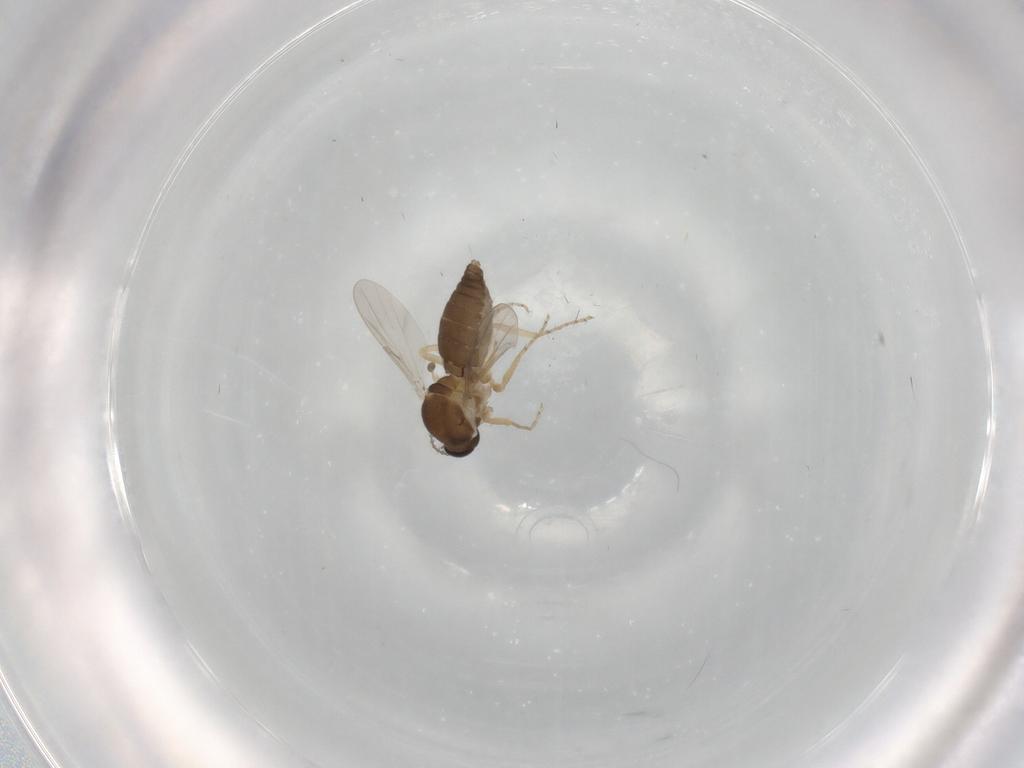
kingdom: Animalia
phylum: Arthropoda
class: Insecta
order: Diptera
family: Ceratopogonidae
